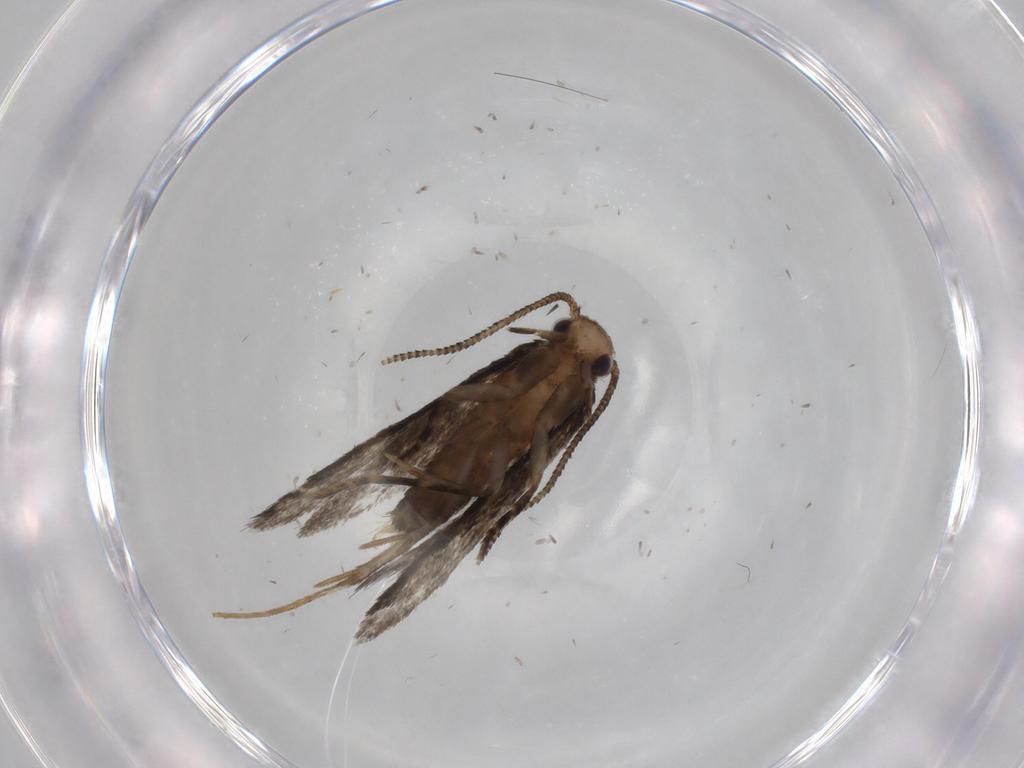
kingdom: Animalia
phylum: Arthropoda
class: Insecta
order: Lepidoptera
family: Tineidae
